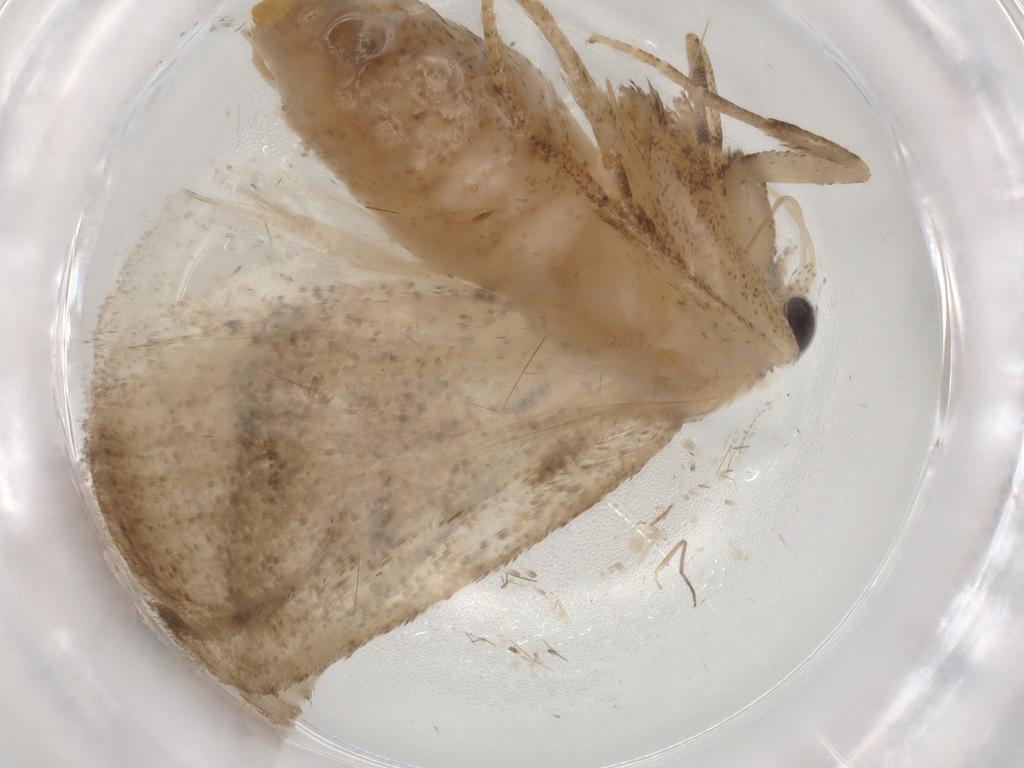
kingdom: Animalia
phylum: Arthropoda
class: Insecta
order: Lepidoptera
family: Nolidae
